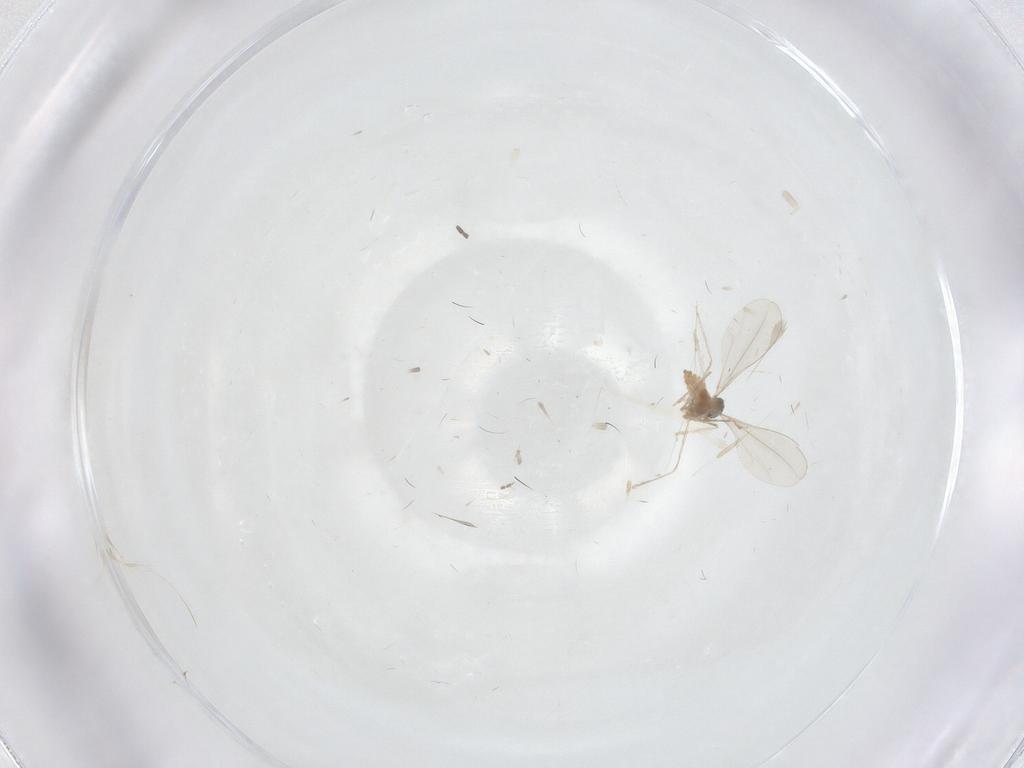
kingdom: Animalia
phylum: Arthropoda
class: Insecta
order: Diptera
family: Sciaridae
